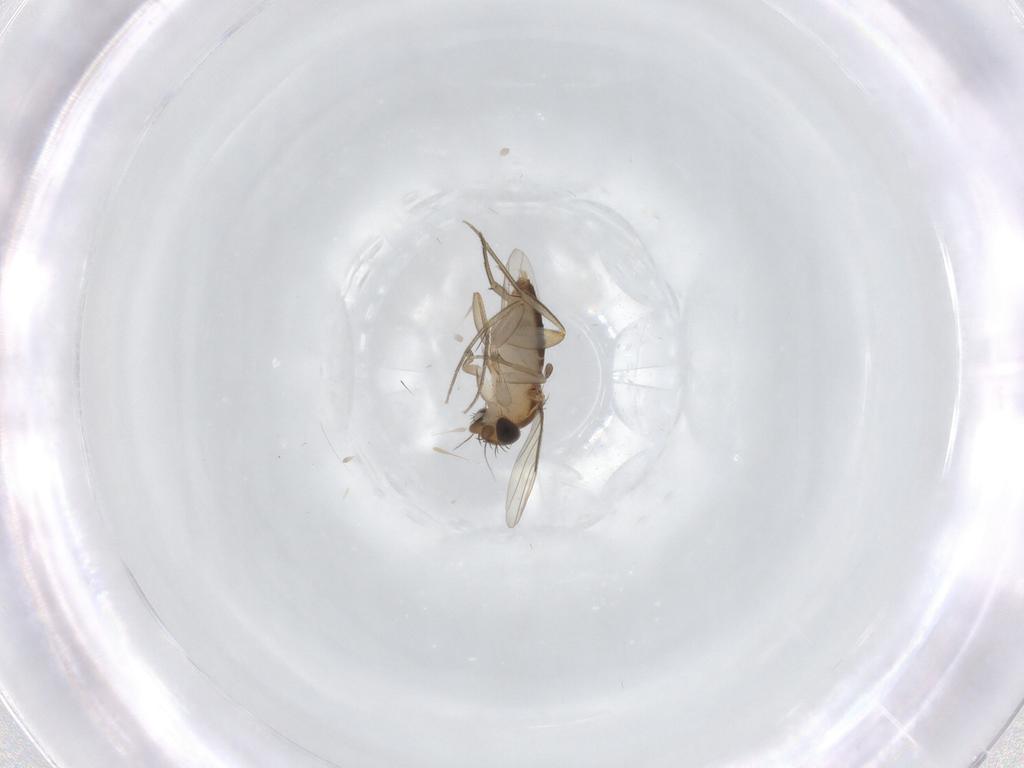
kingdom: Animalia
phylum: Arthropoda
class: Insecta
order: Diptera
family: Phoridae
